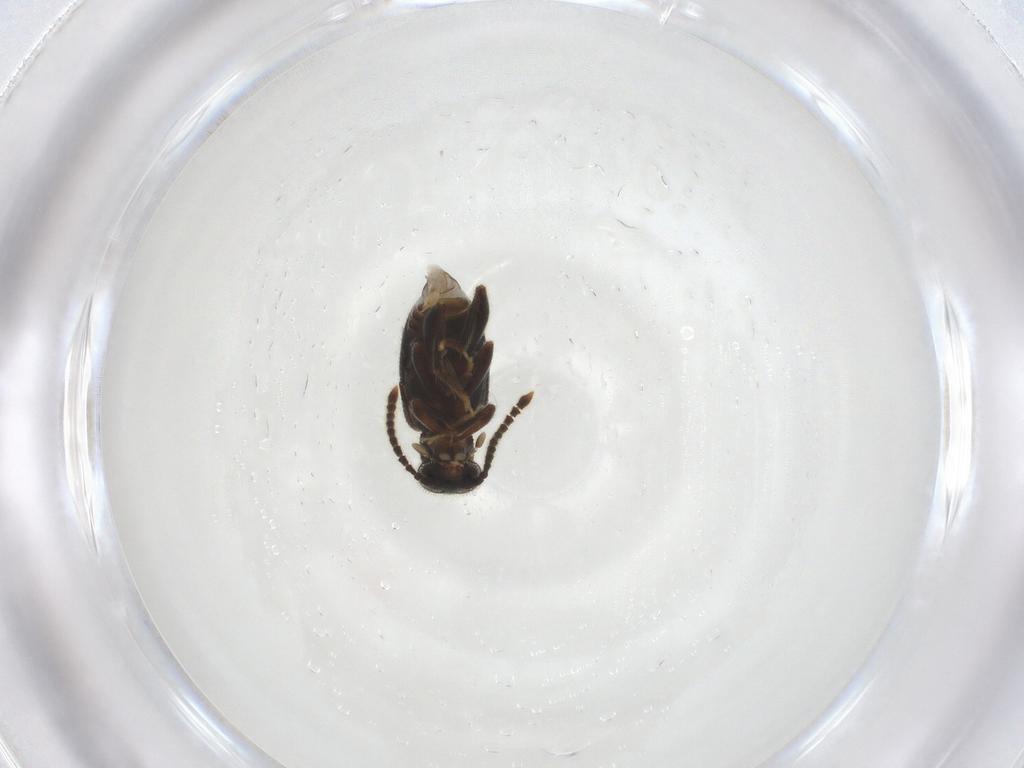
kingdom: Animalia
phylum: Arthropoda
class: Insecta
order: Coleoptera
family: Aderidae
